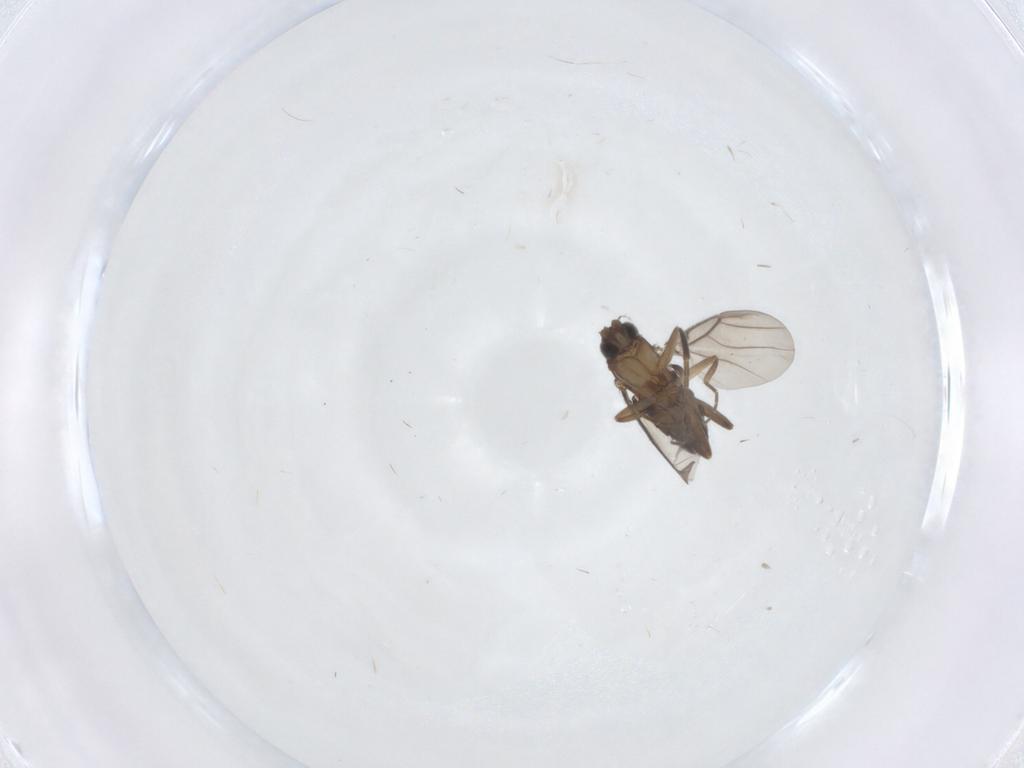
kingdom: Animalia
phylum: Arthropoda
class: Insecta
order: Diptera
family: Phoridae
